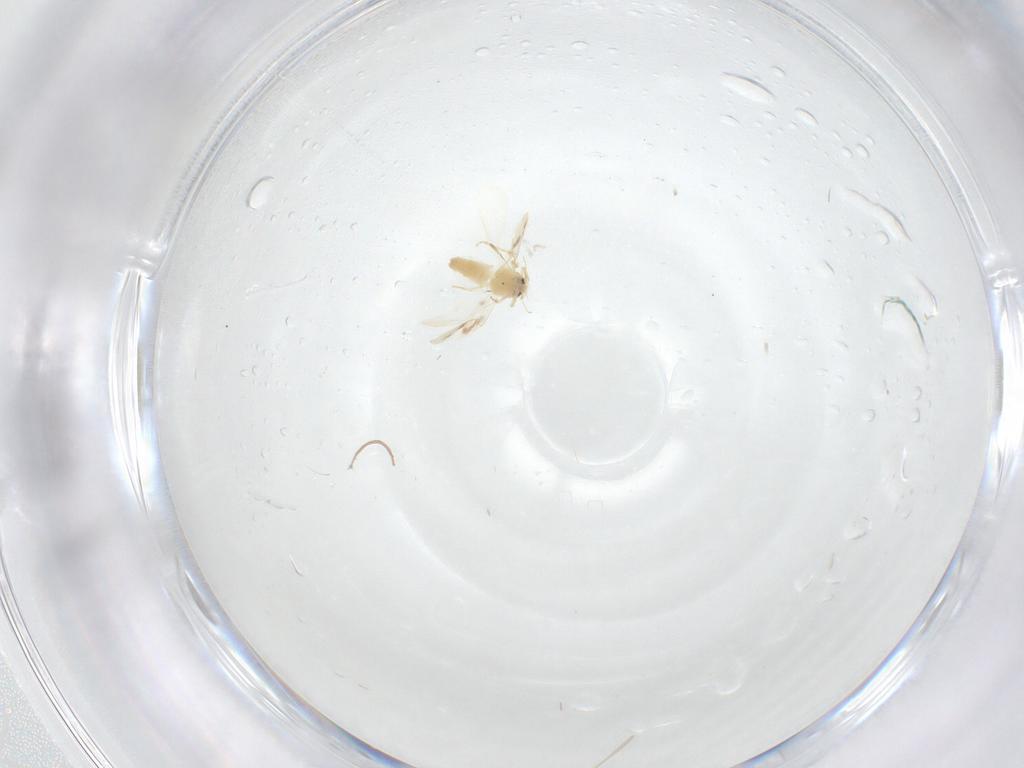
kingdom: Animalia
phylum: Arthropoda
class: Insecta
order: Hemiptera
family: Aleyrodidae
